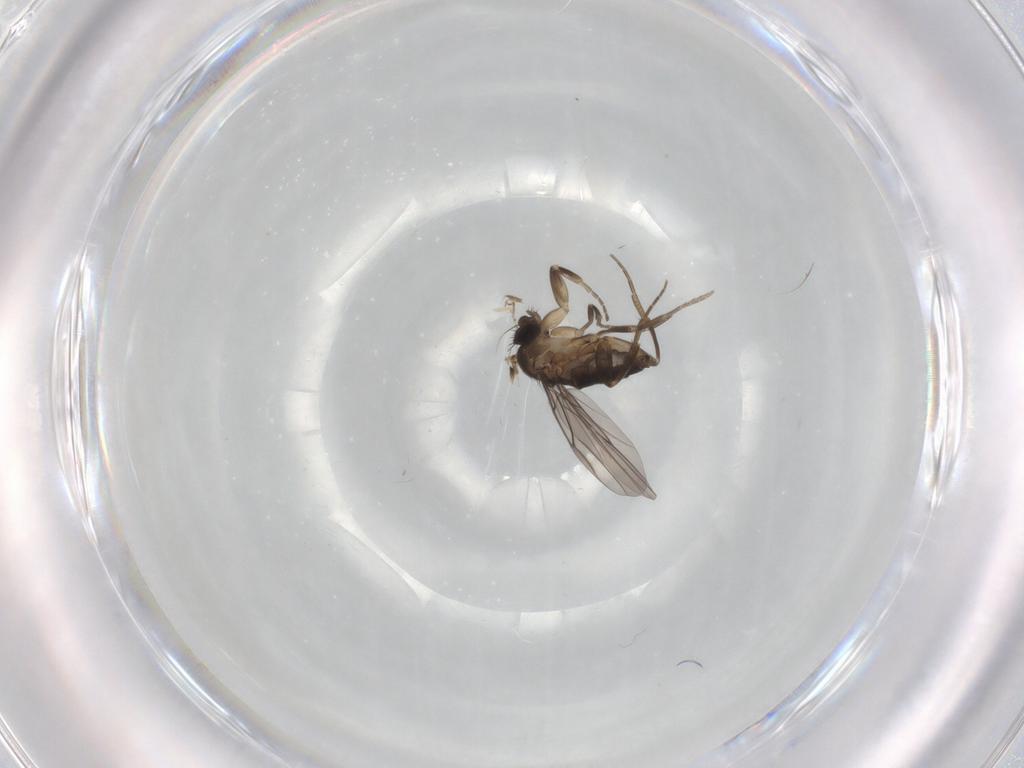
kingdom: Animalia
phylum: Arthropoda
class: Insecta
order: Diptera
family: Phoridae
